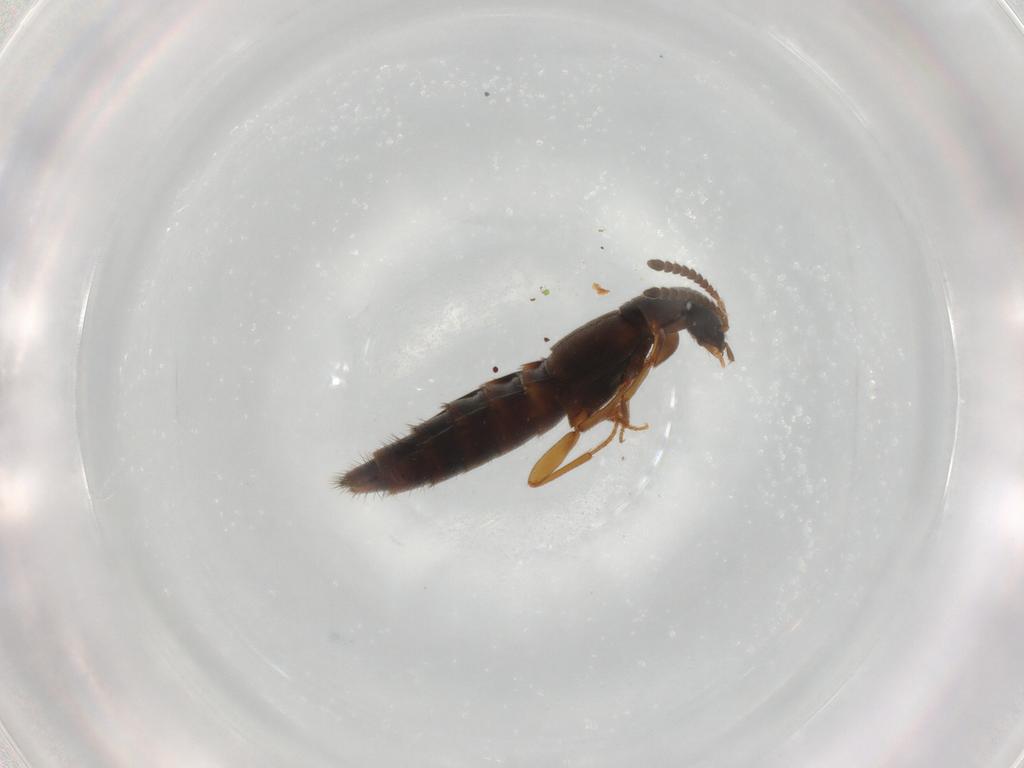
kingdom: Animalia
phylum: Arthropoda
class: Insecta
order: Coleoptera
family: Staphylinidae
